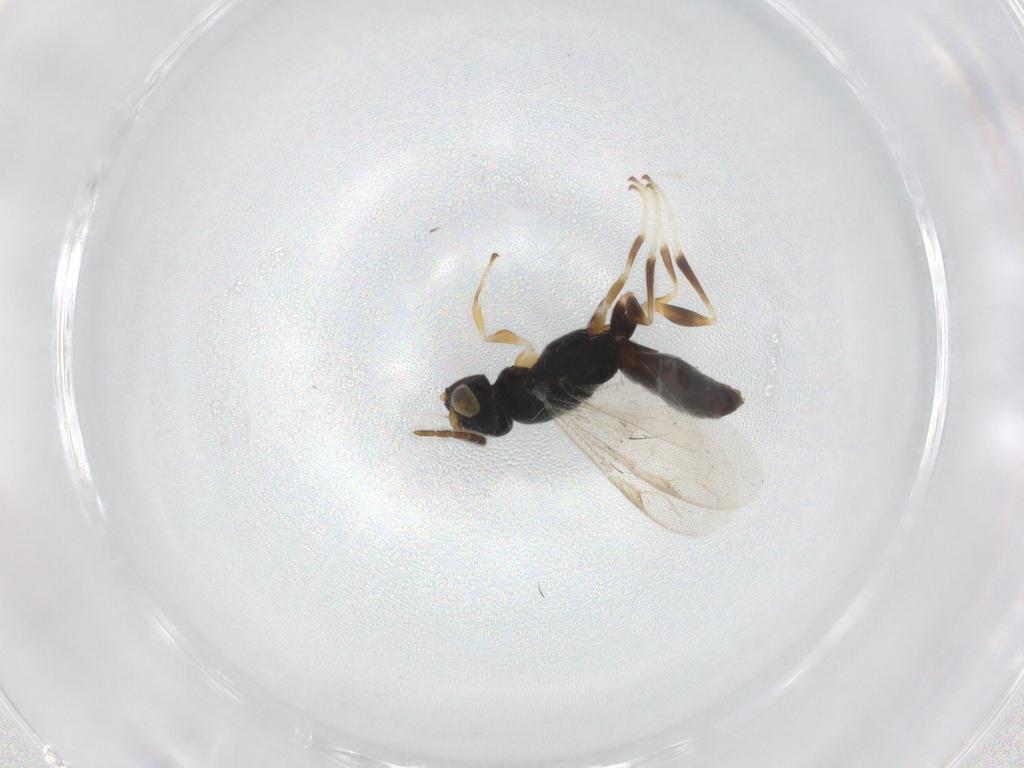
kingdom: Animalia
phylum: Arthropoda
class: Insecta
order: Hymenoptera
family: Dryinidae
